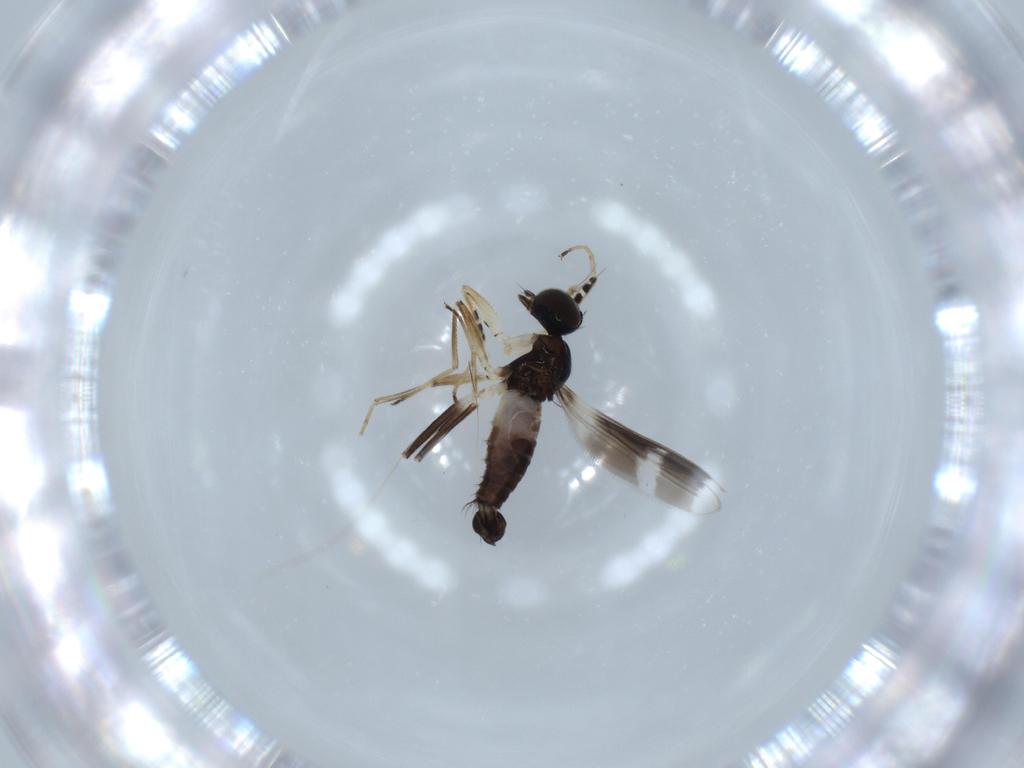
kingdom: Animalia
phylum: Arthropoda
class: Insecta
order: Diptera
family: Hybotidae
